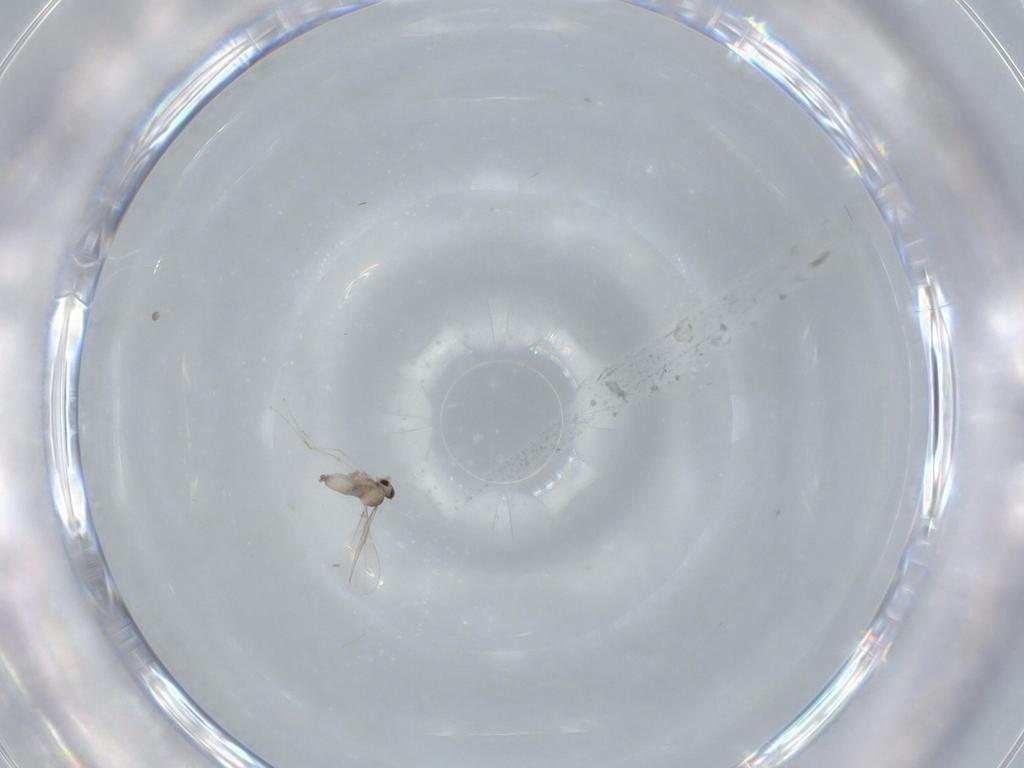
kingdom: Animalia
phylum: Arthropoda
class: Insecta
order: Diptera
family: Cecidomyiidae
